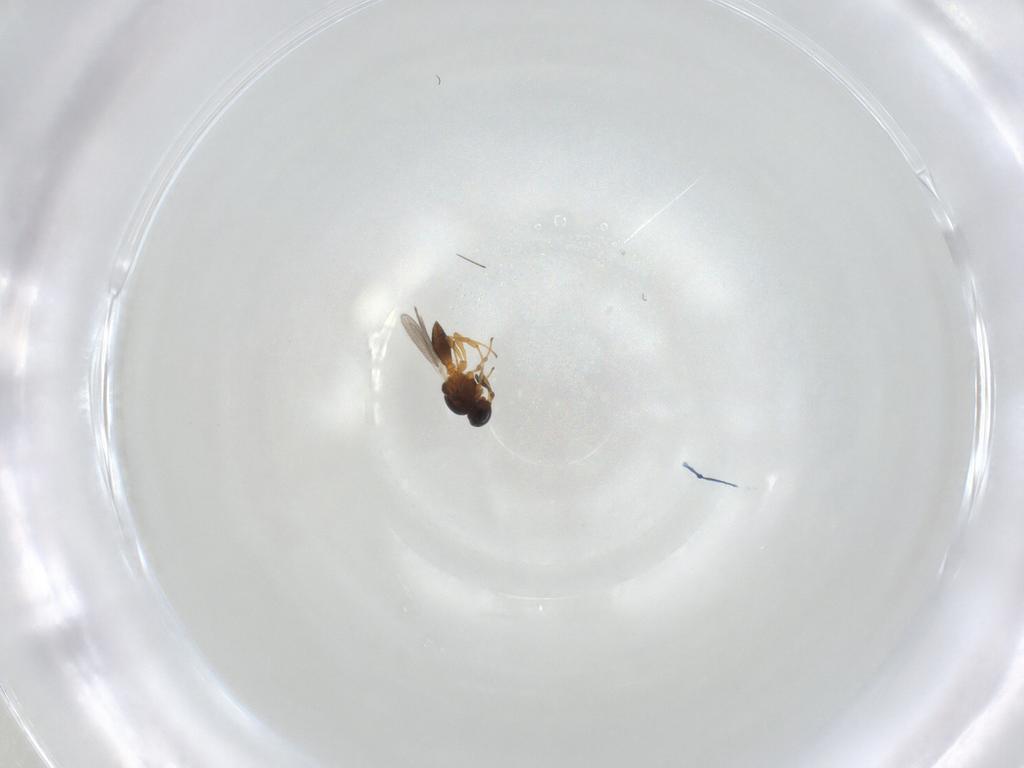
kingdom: Animalia
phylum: Arthropoda
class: Insecta
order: Hymenoptera
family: Platygastridae
